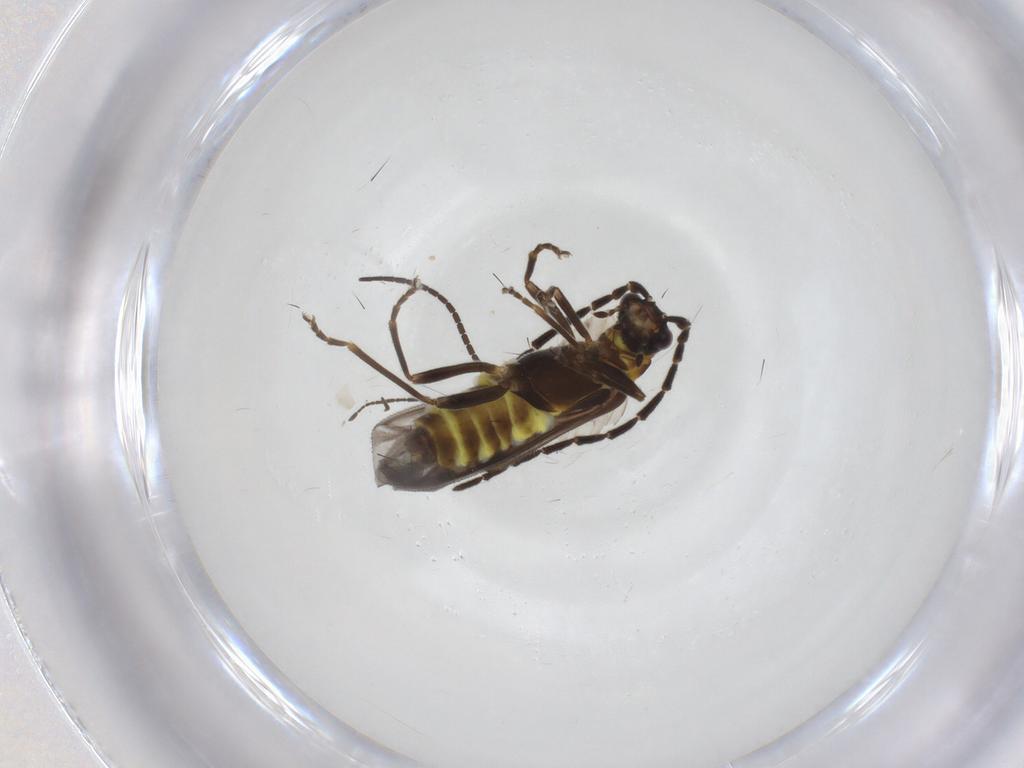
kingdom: Animalia
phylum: Arthropoda
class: Insecta
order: Coleoptera
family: Cantharidae
